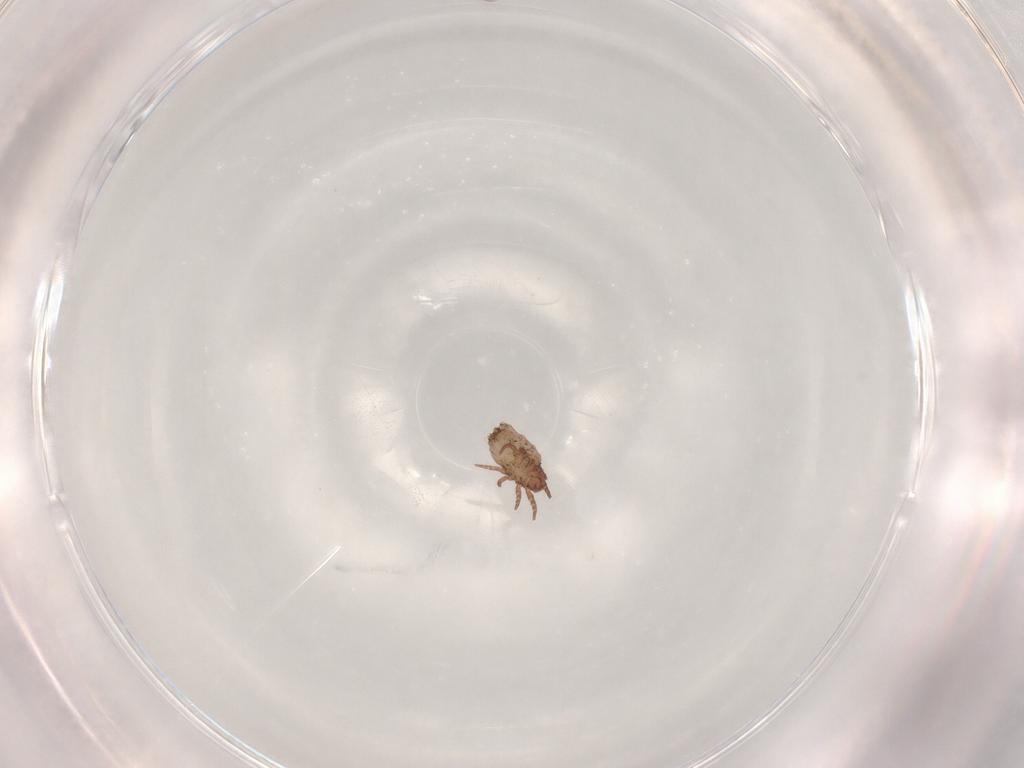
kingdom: Animalia
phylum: Arthropoda
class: Arachnida
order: Sarcoptiformes
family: Crotoniidae
